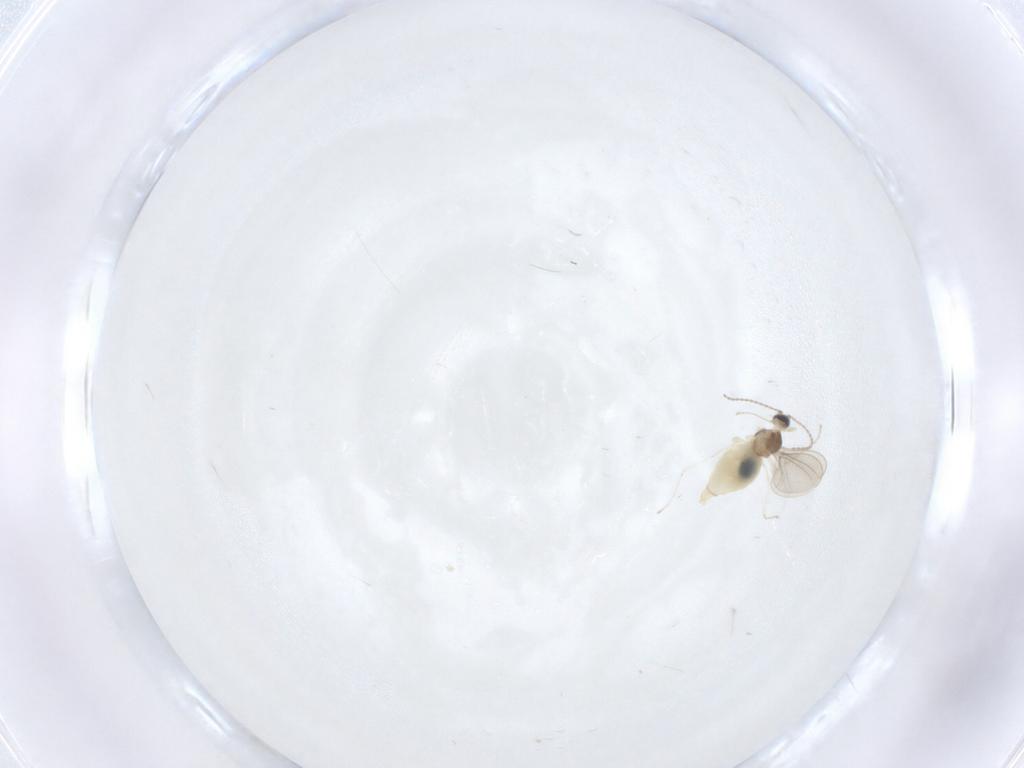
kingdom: Animalia
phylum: Arthropoda
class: Insecta
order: Diptera
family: Cecidomyiidae
